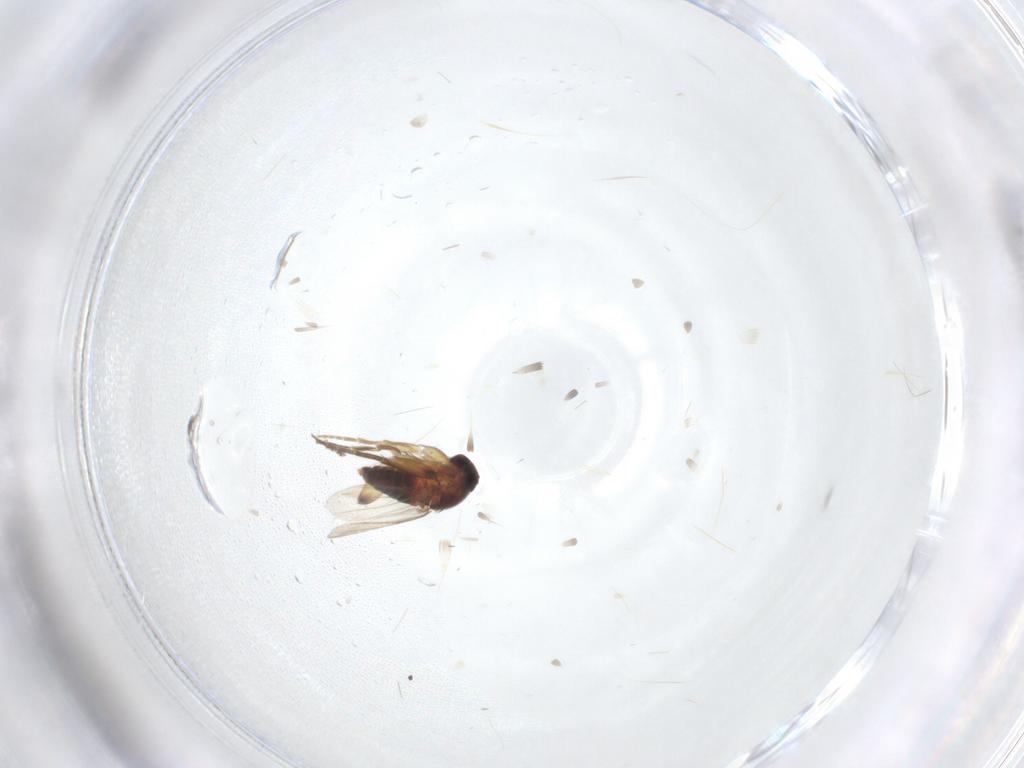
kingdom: Animalia
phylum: Arthropoda
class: Insecta
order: Diptera
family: Phoridae
